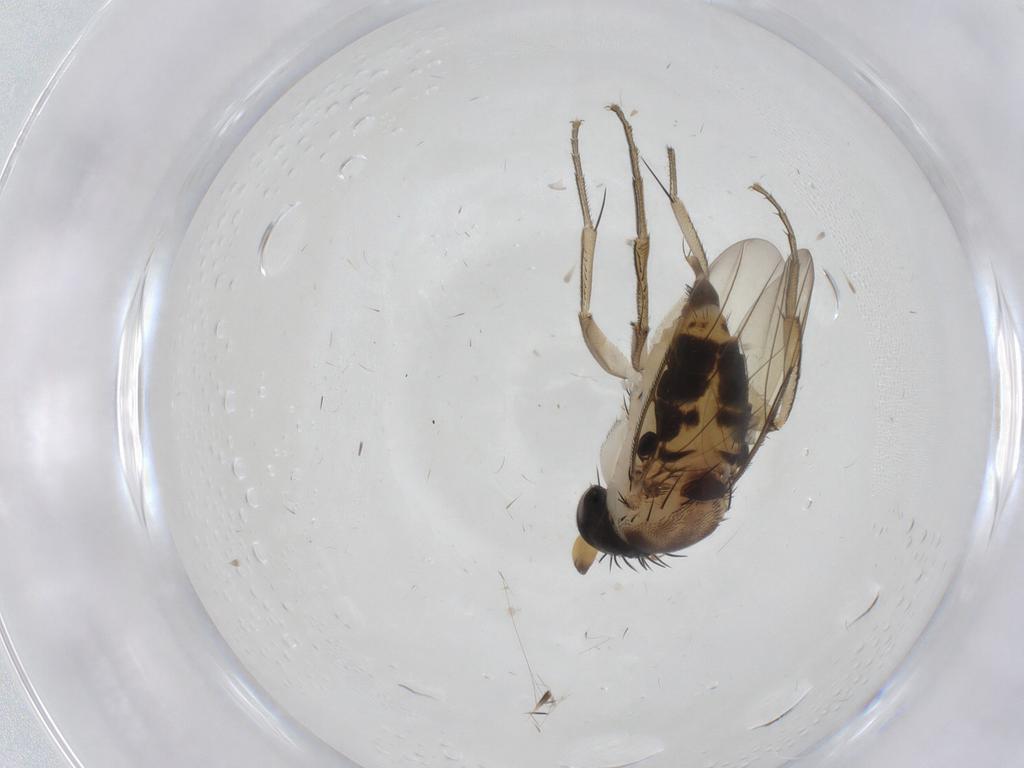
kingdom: Animalia
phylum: Arthropoda
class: Insecta
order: Diptera
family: Phoridae
